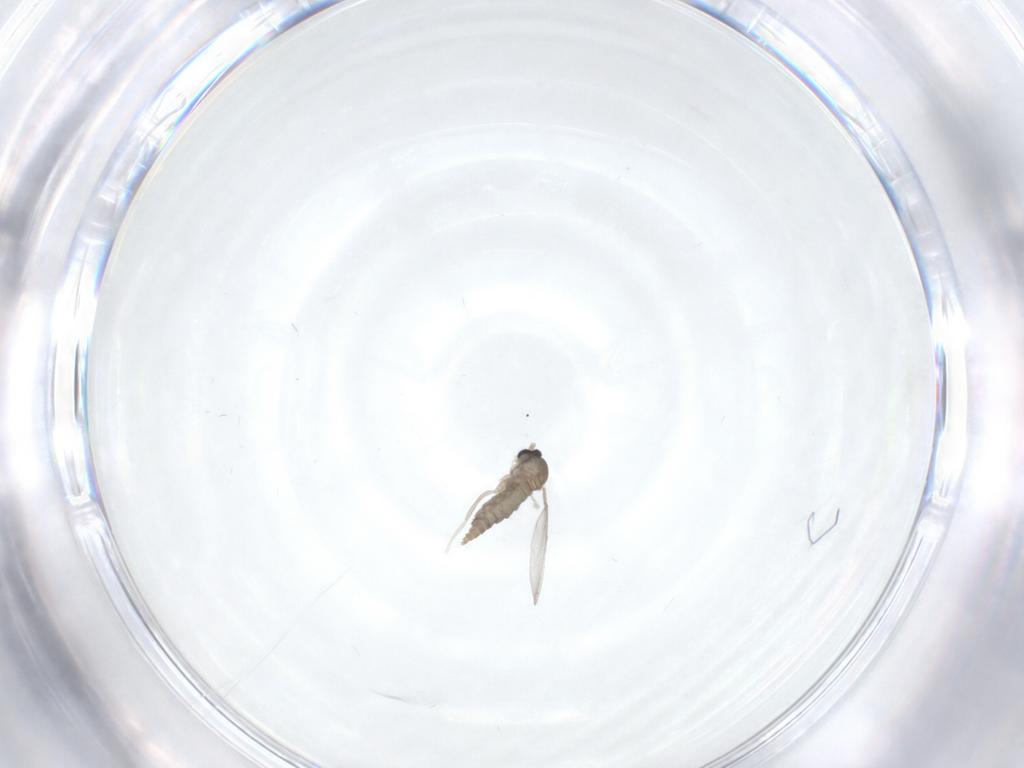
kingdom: Animalia
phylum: Arthropoda
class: Insecta
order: Diptera
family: Cecidomyiidae
